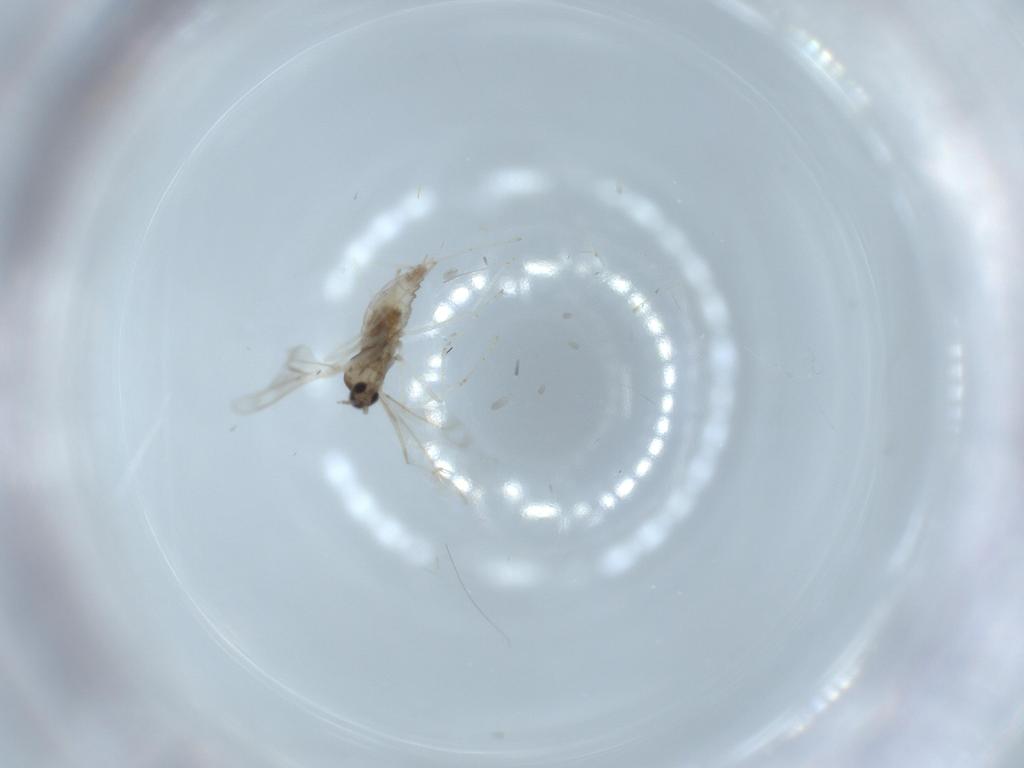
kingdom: Animalia
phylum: Arthropoda
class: Insecta
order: Diptera
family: Cecidomyiidae
